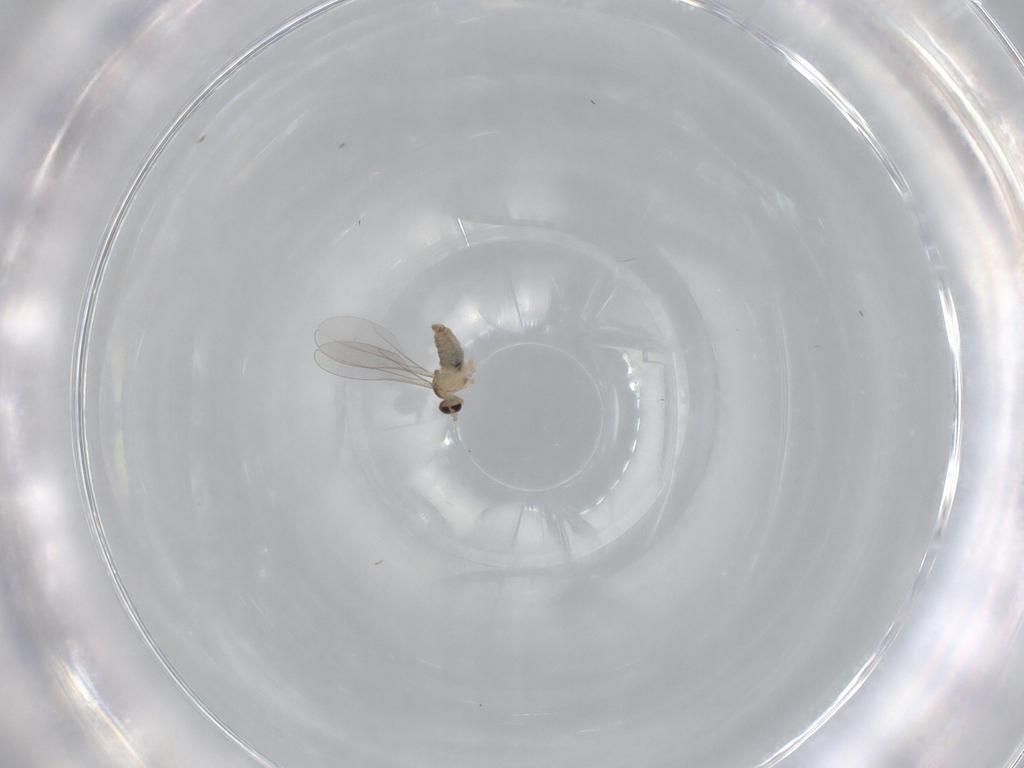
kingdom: Animalia
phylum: Arthropoda
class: Insecta
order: Diptera
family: Cecidomyiidae
